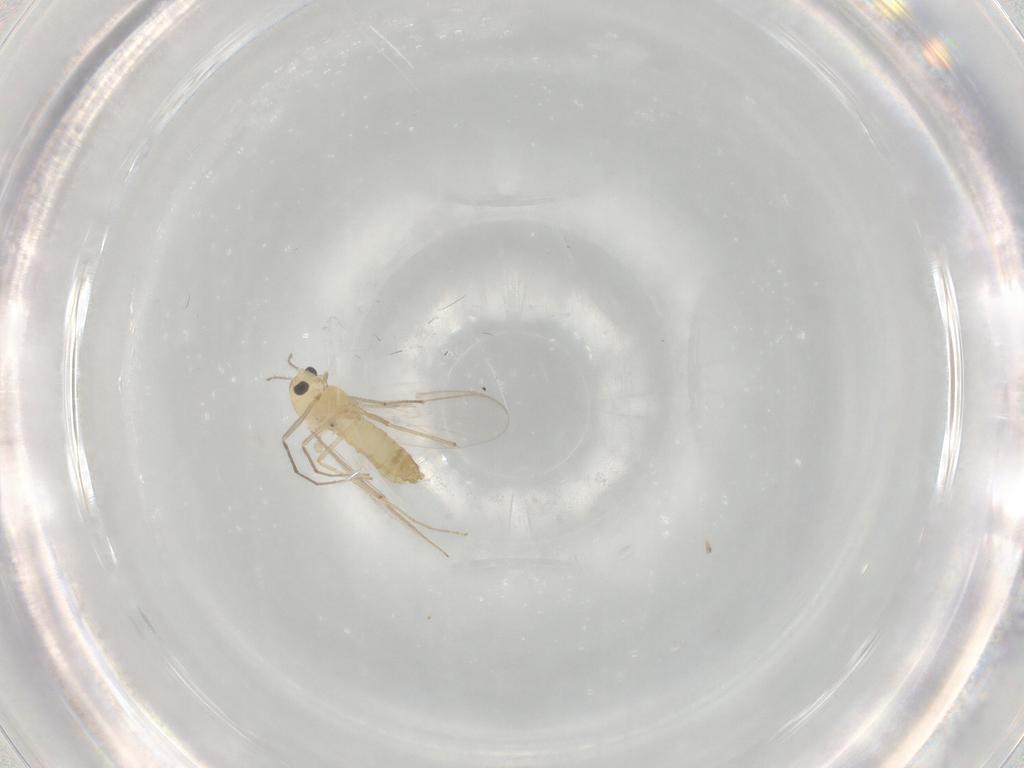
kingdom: Animalia
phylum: Arthropoda
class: Insecta
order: Diptera
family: Chironomidae
